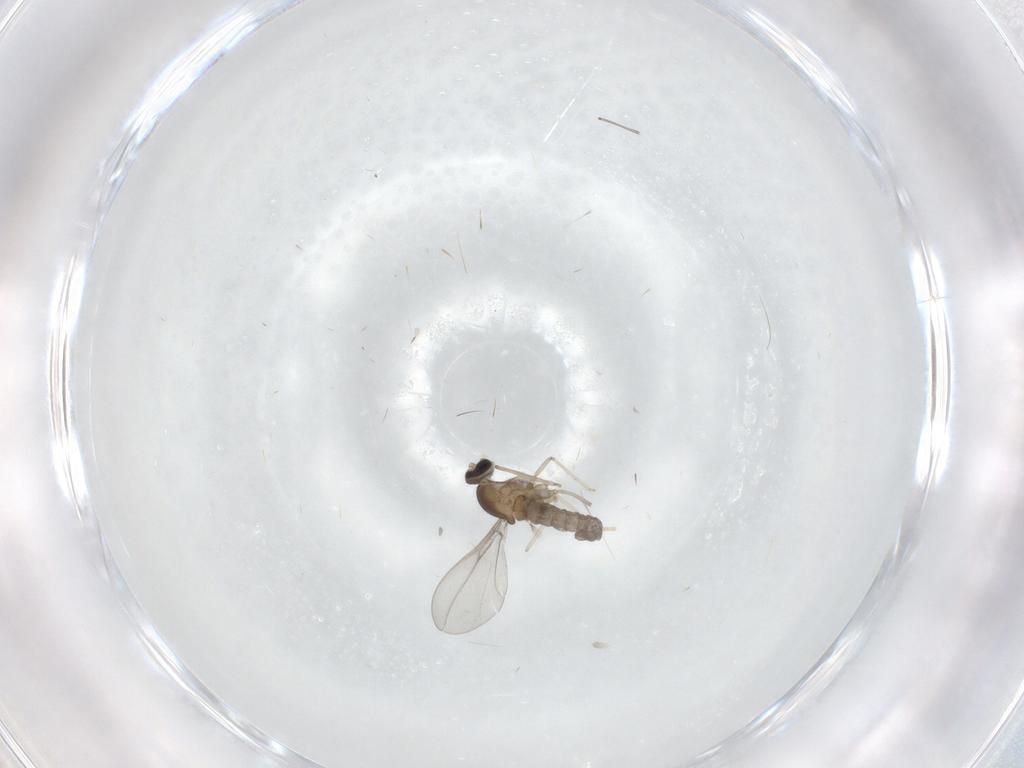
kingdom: Animalia
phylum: Arthropoda
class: Insecta
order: Diptera
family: Cecidomyiidae
